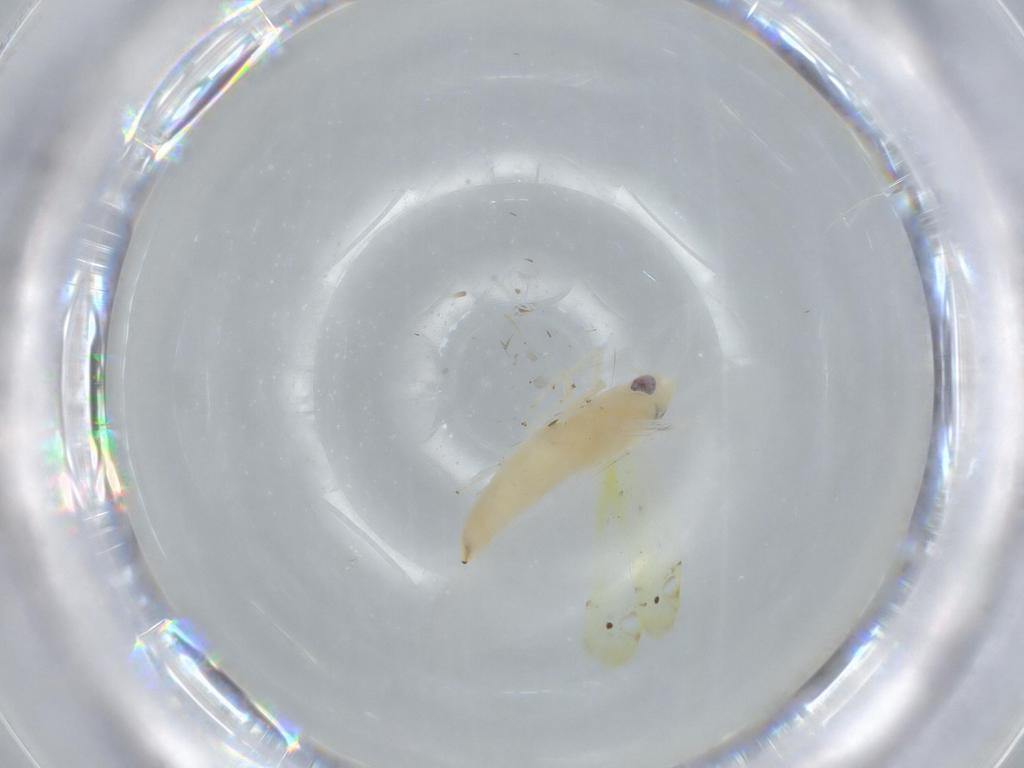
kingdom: Animalia
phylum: Arthropoda
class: Insecta
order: Hemiptera
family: Cicadellidae
